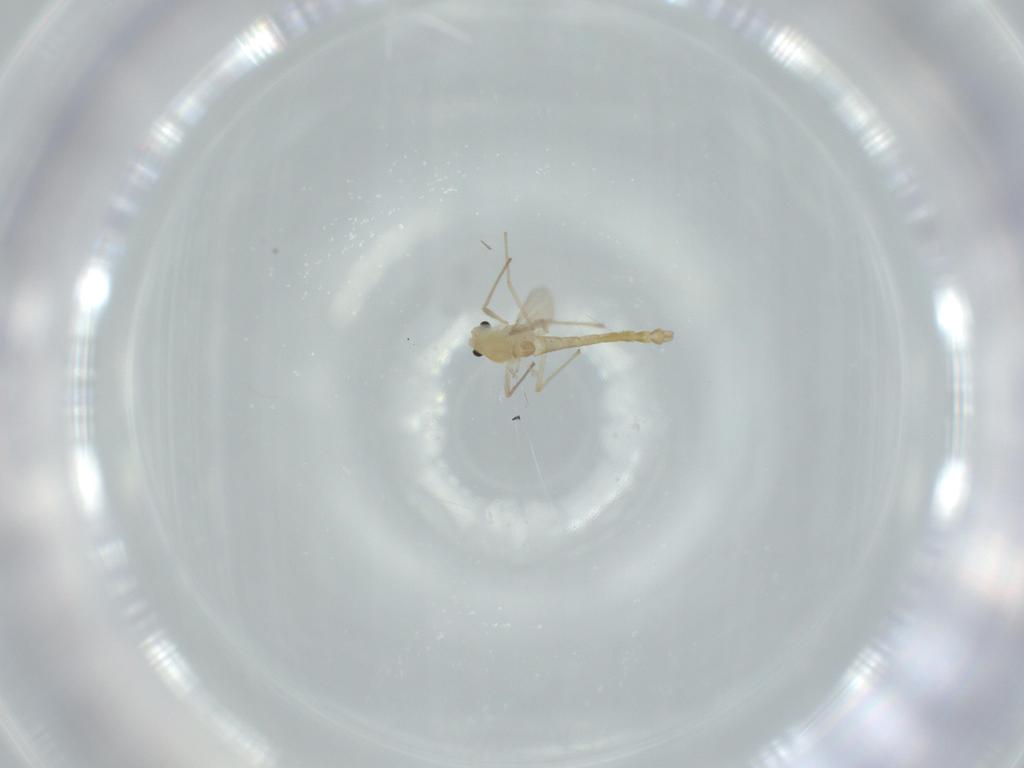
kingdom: Animalia
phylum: Arthropoda
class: Insecta
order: Diptera
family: Chironomidae
